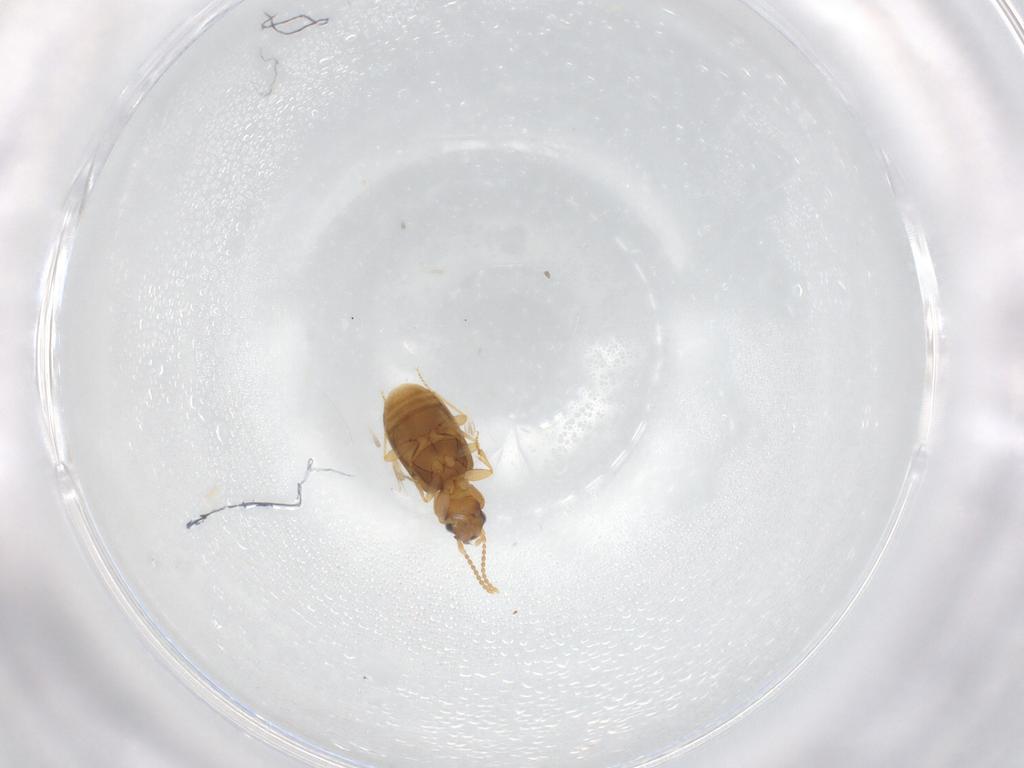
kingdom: Animalia
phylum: Arthropoda
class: Insecta
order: Coleoptera
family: Carabidae
